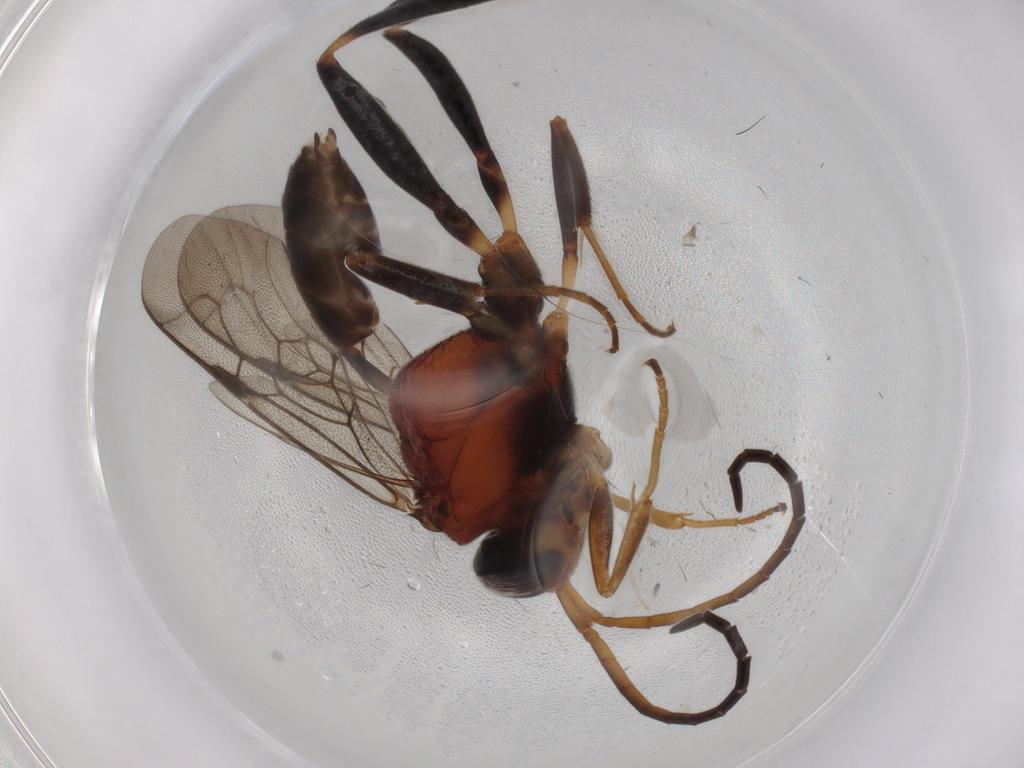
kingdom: Animalia
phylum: Arthropoda
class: Insecta
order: Hymenoptera
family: Evaniidae
